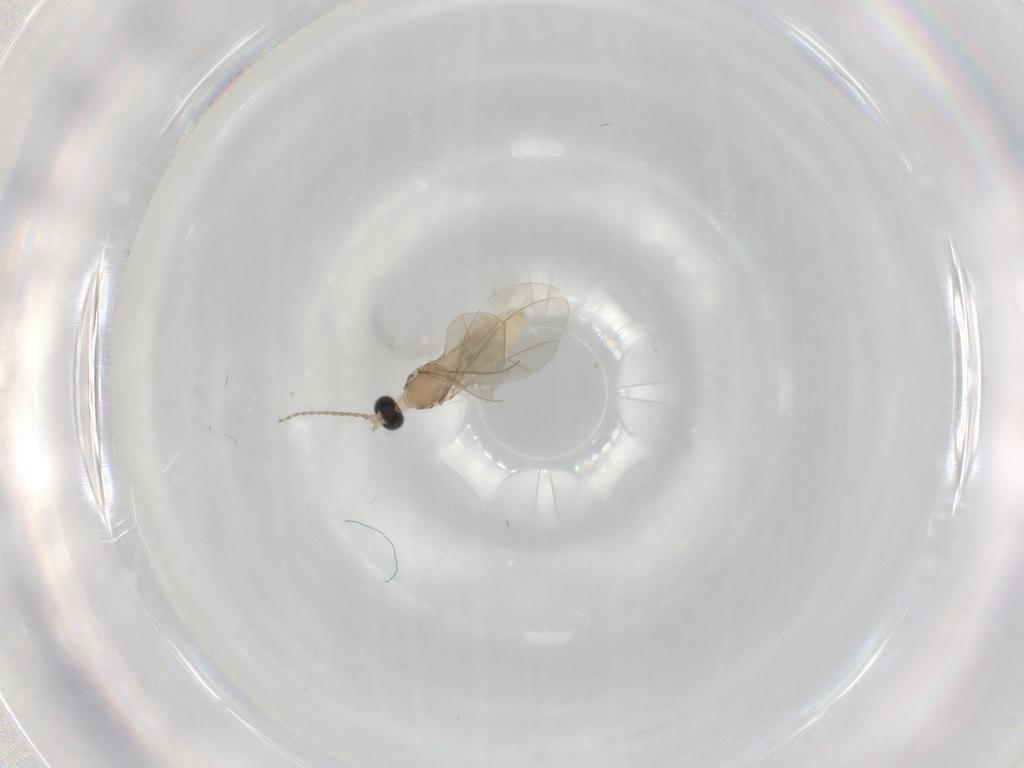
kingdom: Animalia
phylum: Arthropoda
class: Insecta
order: Diptera
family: Cecidomyiidae
